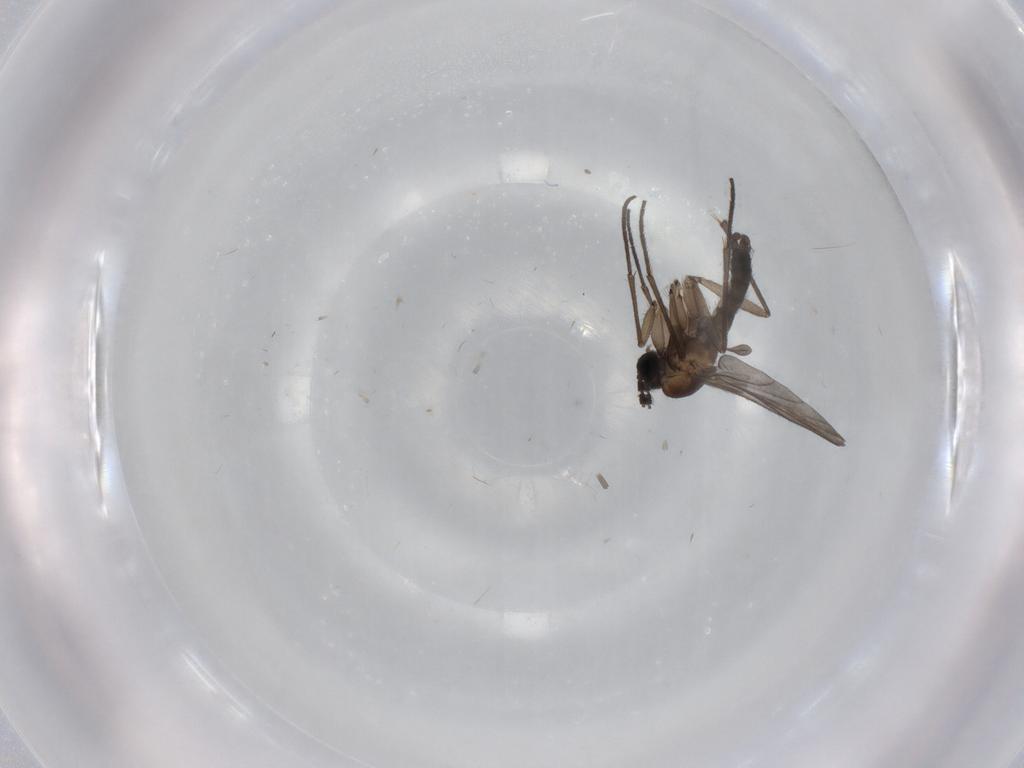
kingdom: Animalia
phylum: Arthropoda
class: Insecta
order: Diptera
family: Sciaridae
